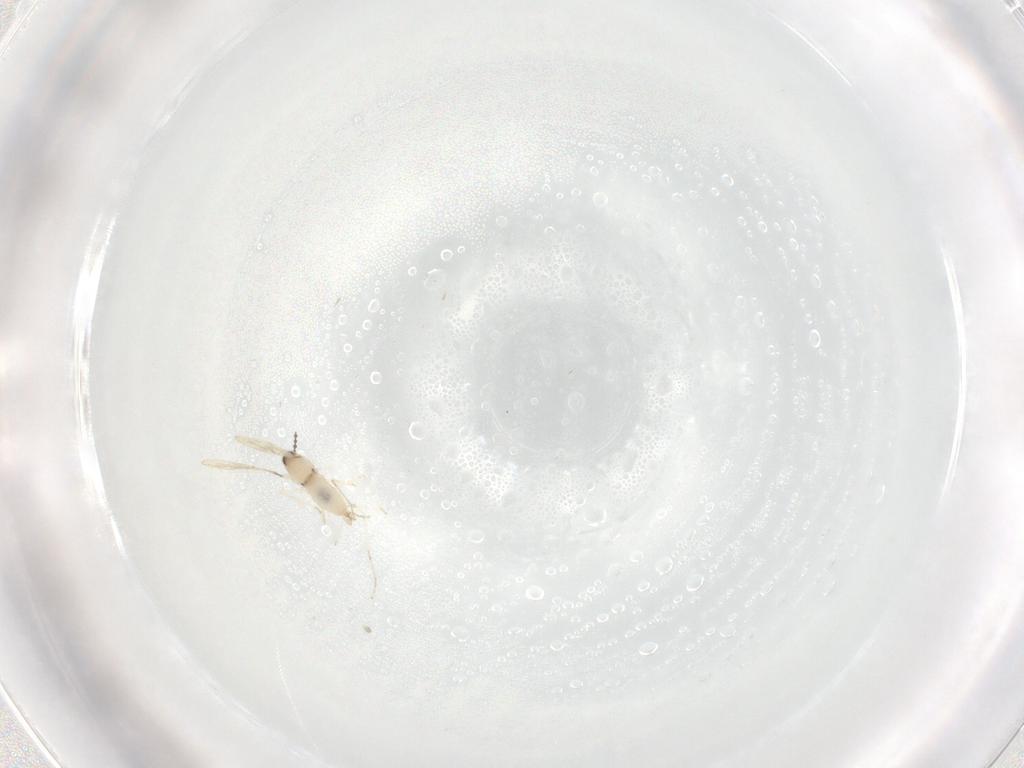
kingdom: Animalia
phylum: Arthropoda
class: Insecta
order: Diptera
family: Cecidomyiidae
